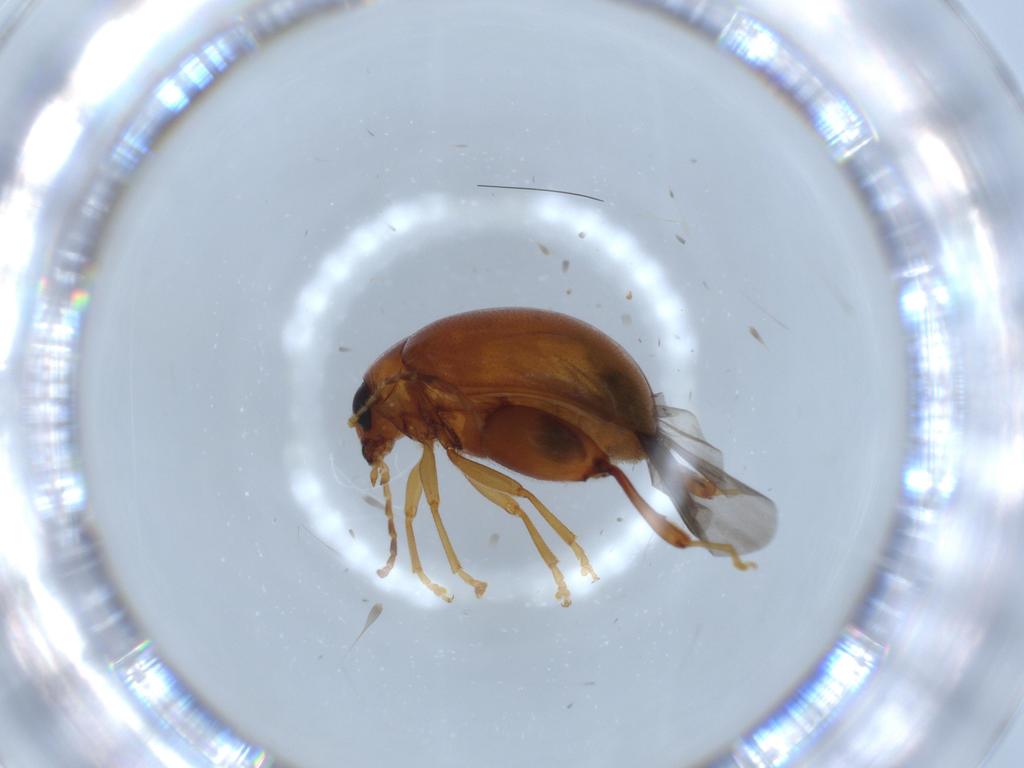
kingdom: Animalia
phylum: Arthropoda
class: Insecta
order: Coleoptera
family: Chrysomelidae
